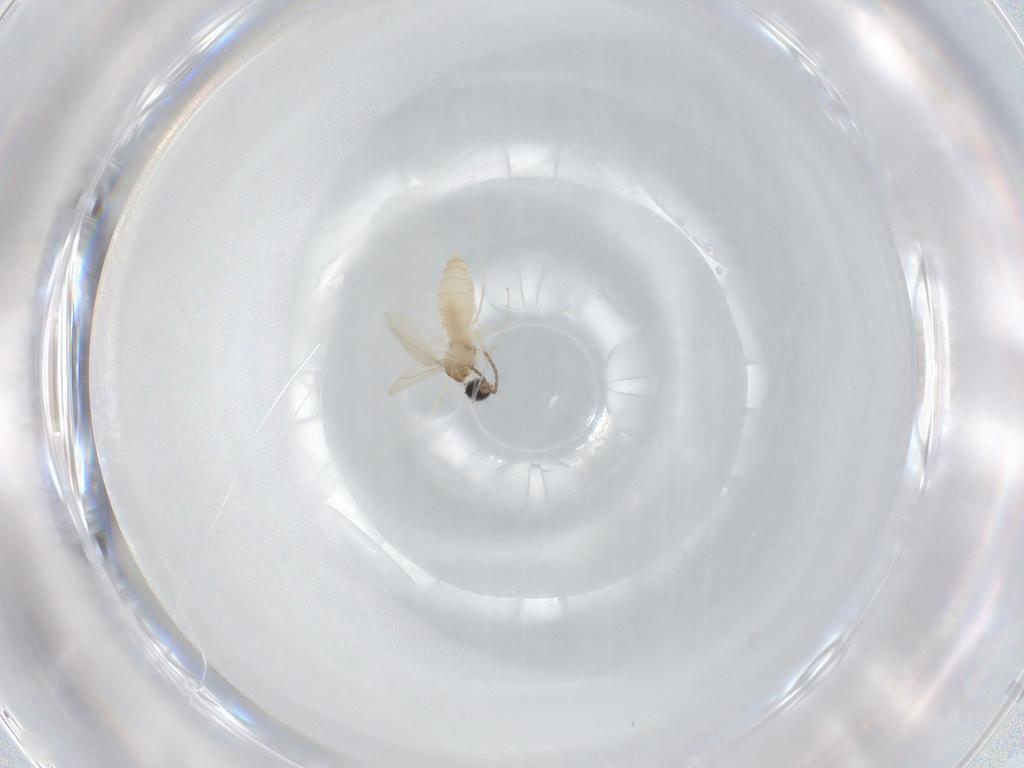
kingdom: Animalia
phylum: Arthropoda
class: Insecta
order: Diptera
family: Cecidomyiidae
